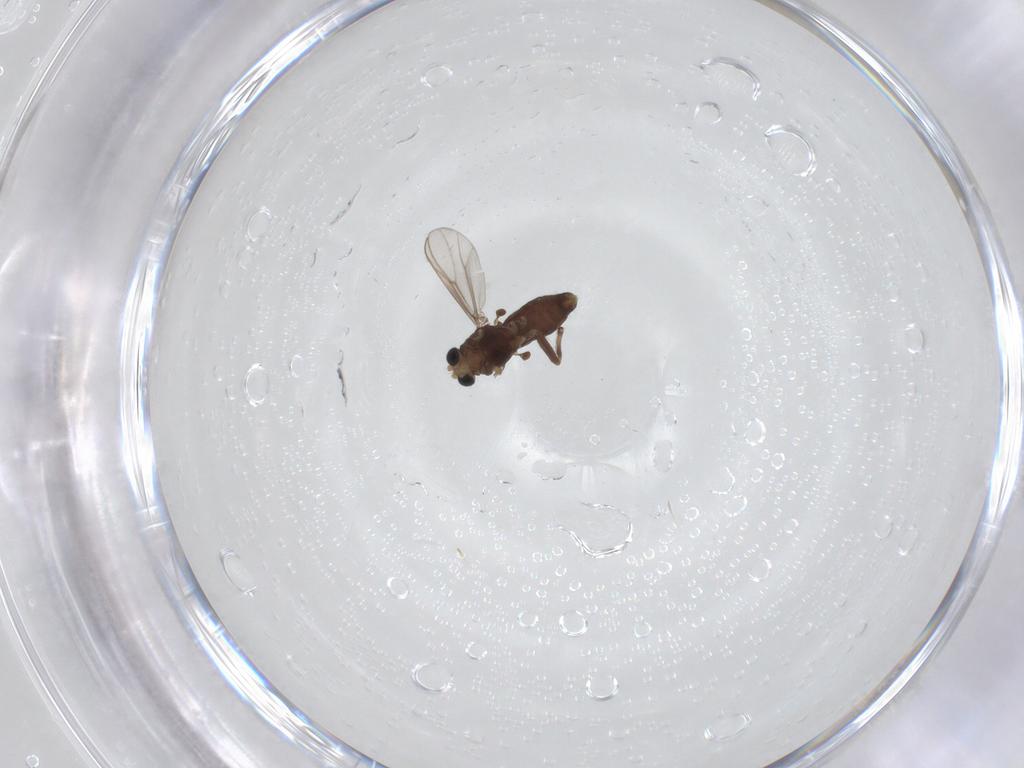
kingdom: Animalia
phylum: Arthropoda
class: Insecta
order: Diptera
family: Chironomidae
